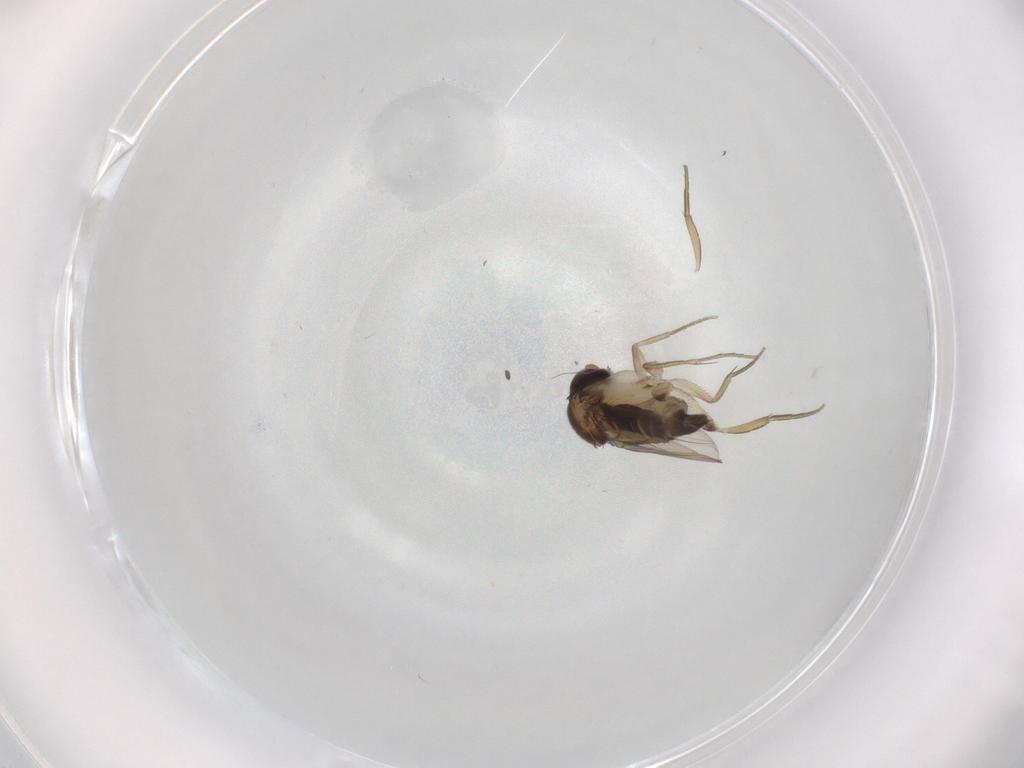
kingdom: Animalia
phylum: Arthropoda
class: Insecta
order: Diptera
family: Phoridae
